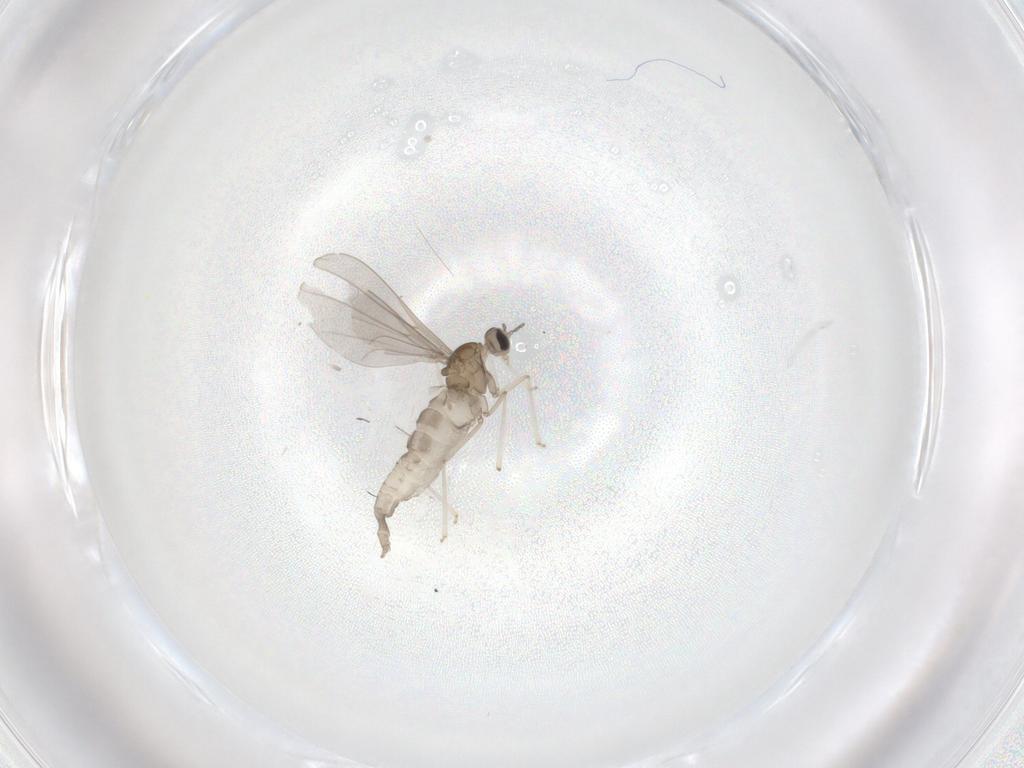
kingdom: Animalia
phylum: Arthropoda
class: Insecta
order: Diptera
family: Cecidomyiidae
